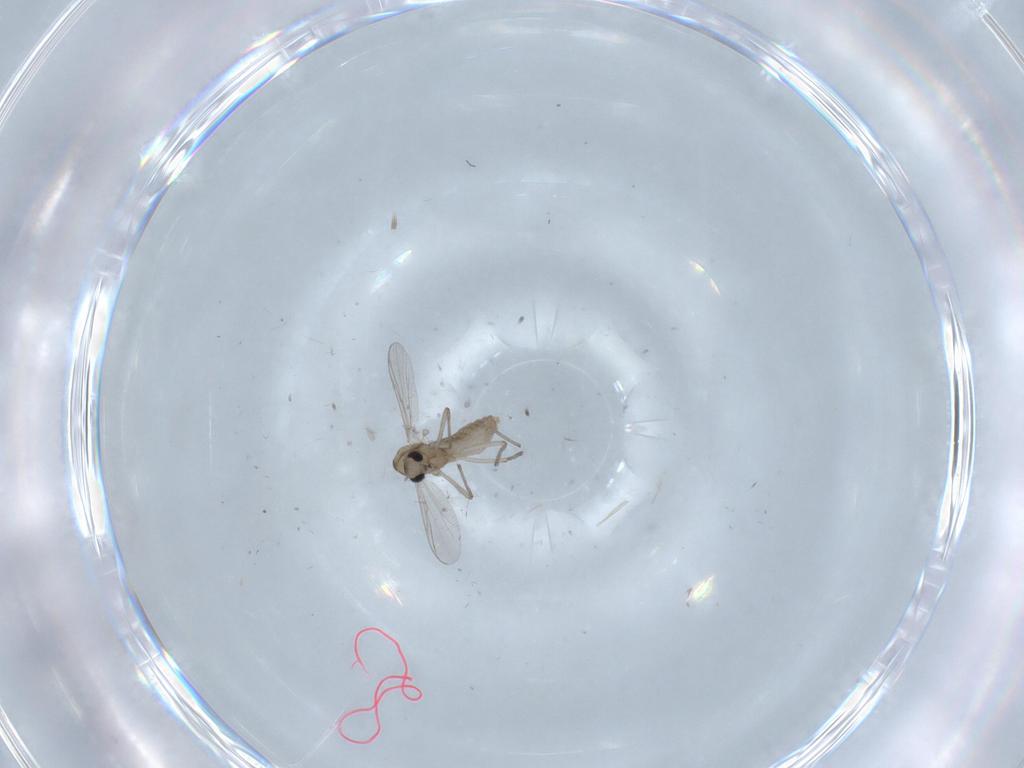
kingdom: Animalia
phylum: Arthropoda
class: Insecta
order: Diptera
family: Chironomidae
